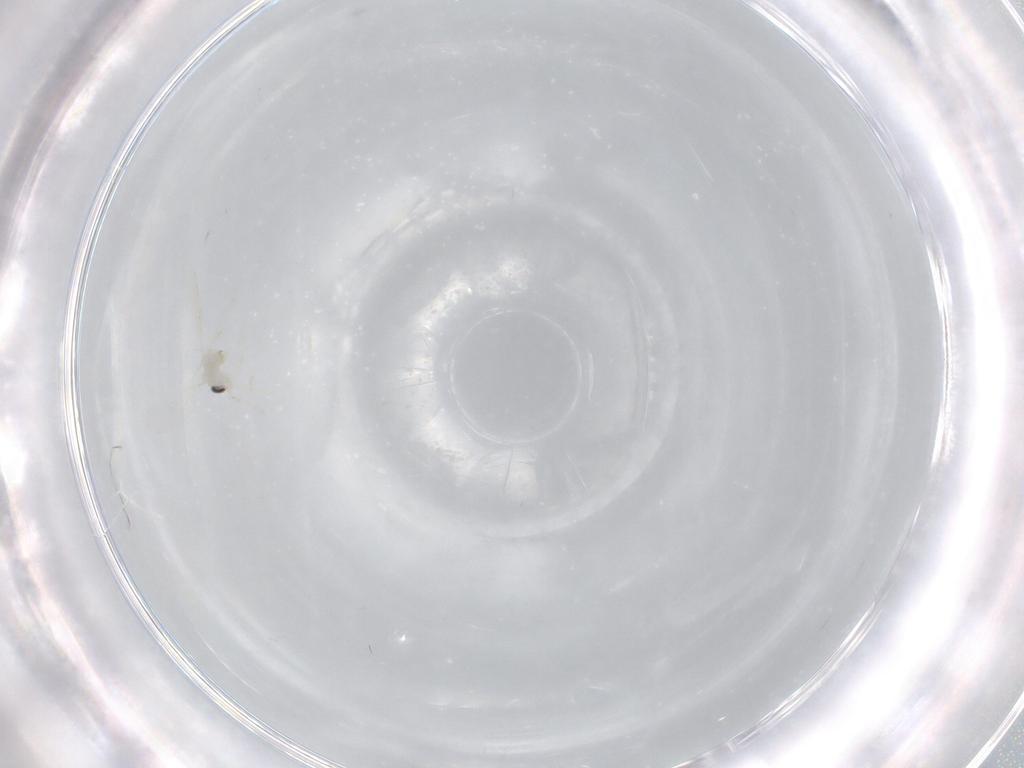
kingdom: Animalia
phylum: Arthropoda
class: Insecta
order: Diptera
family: Cecidomyiidae
